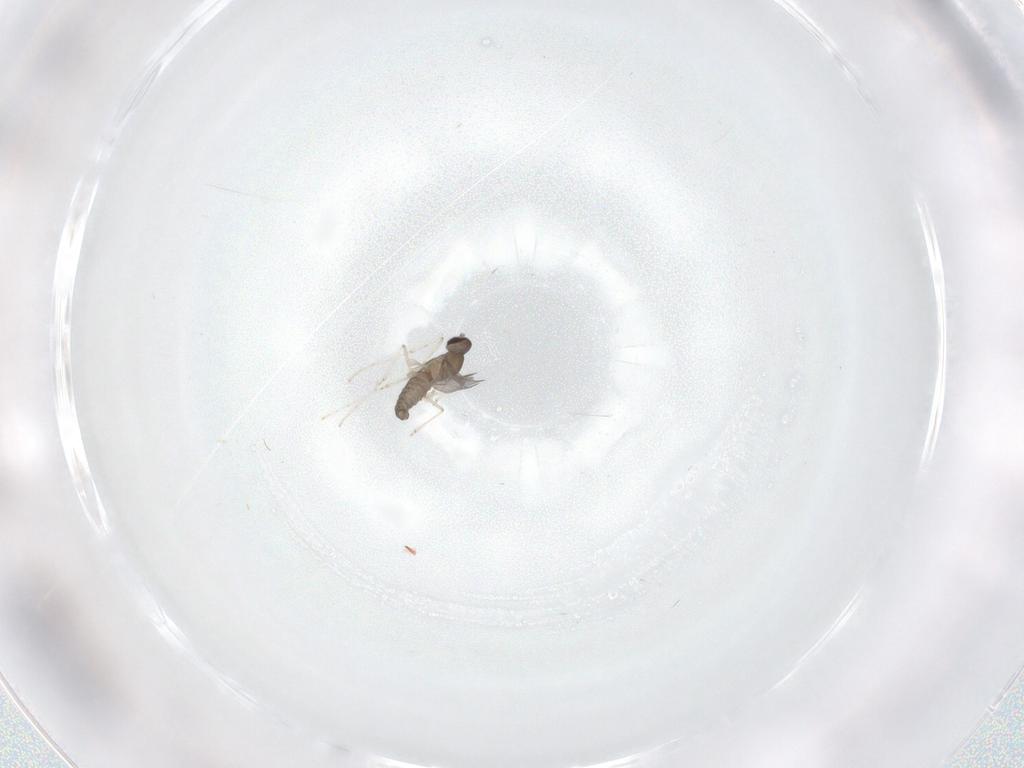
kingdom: Animalia
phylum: Arthropoda
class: Insecta
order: Diptera
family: Cecidomyiidae
